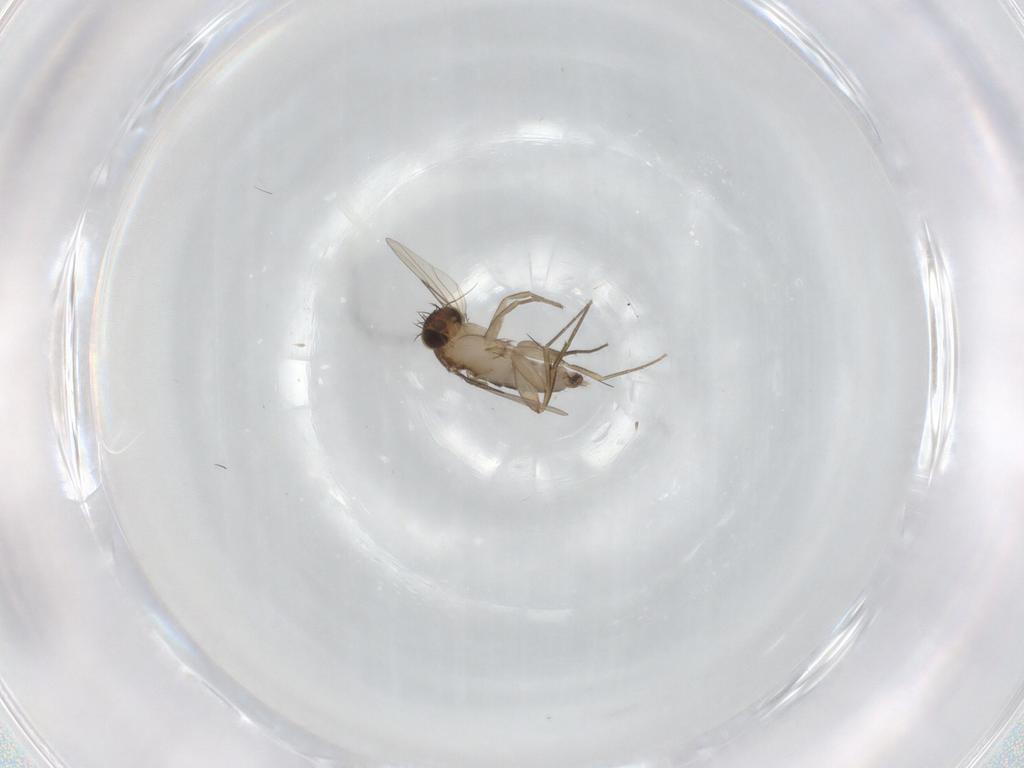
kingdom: Animalia
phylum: Arthropoda
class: Insecta
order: Diptera
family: Phoridae
